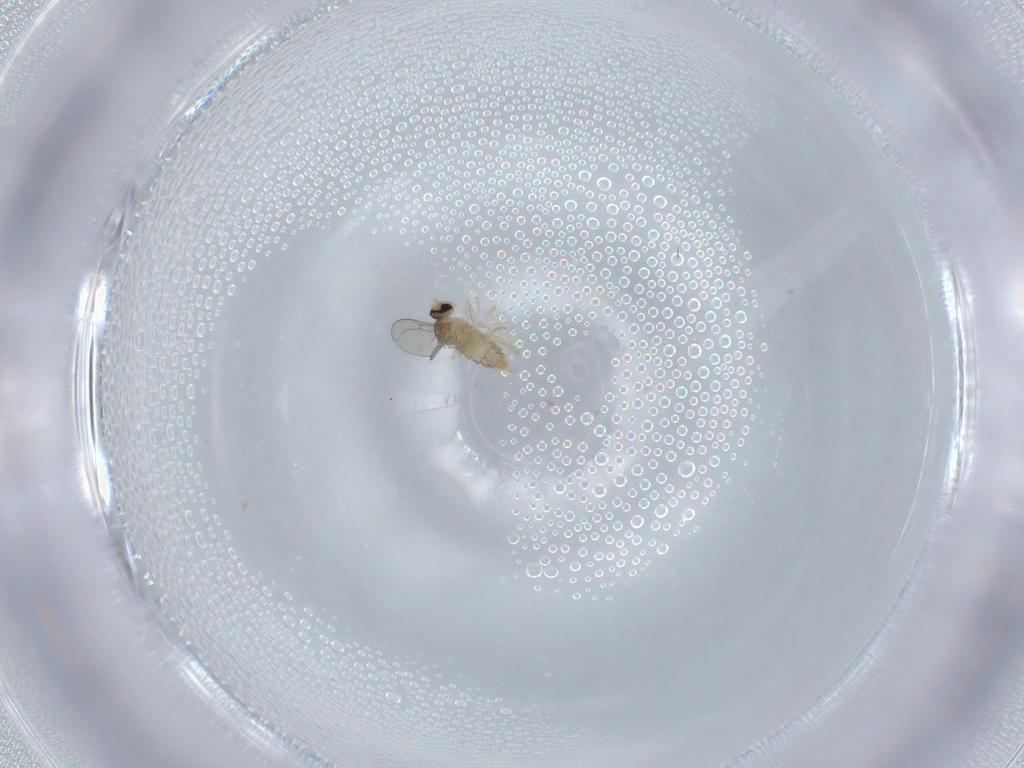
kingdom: Animalia
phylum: Arthropoda
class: Insecta
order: Diptera
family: Cecidomyiidae
